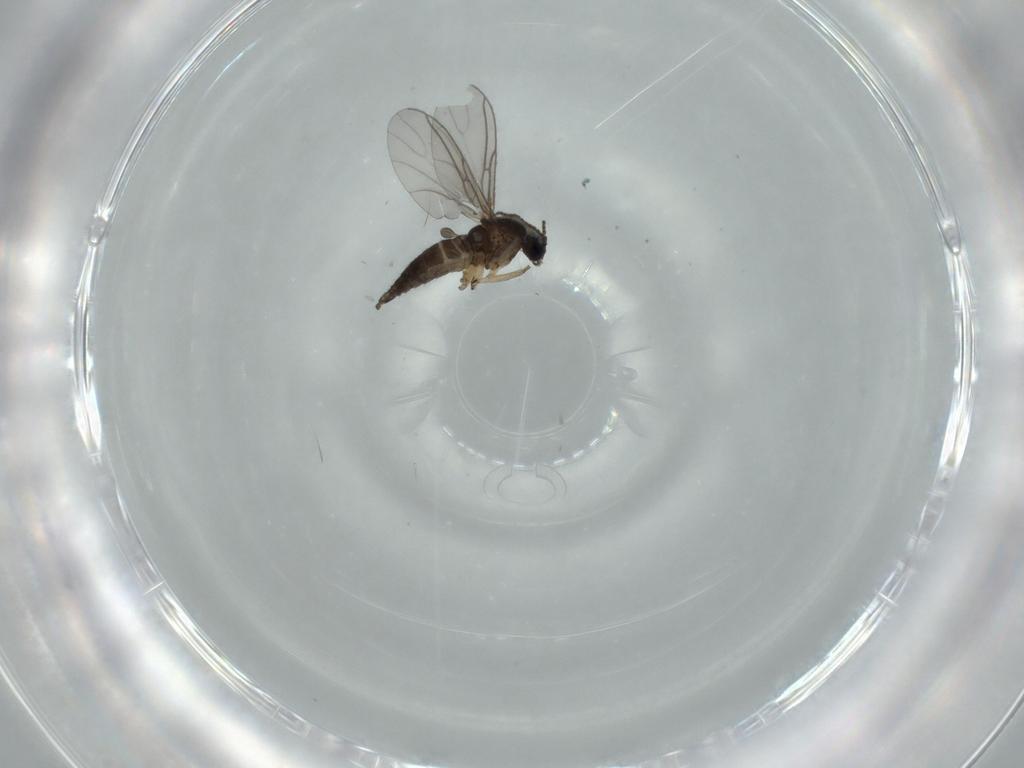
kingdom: Animalia
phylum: Arthropoda
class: Insecta
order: Diptera
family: Sciaridae
